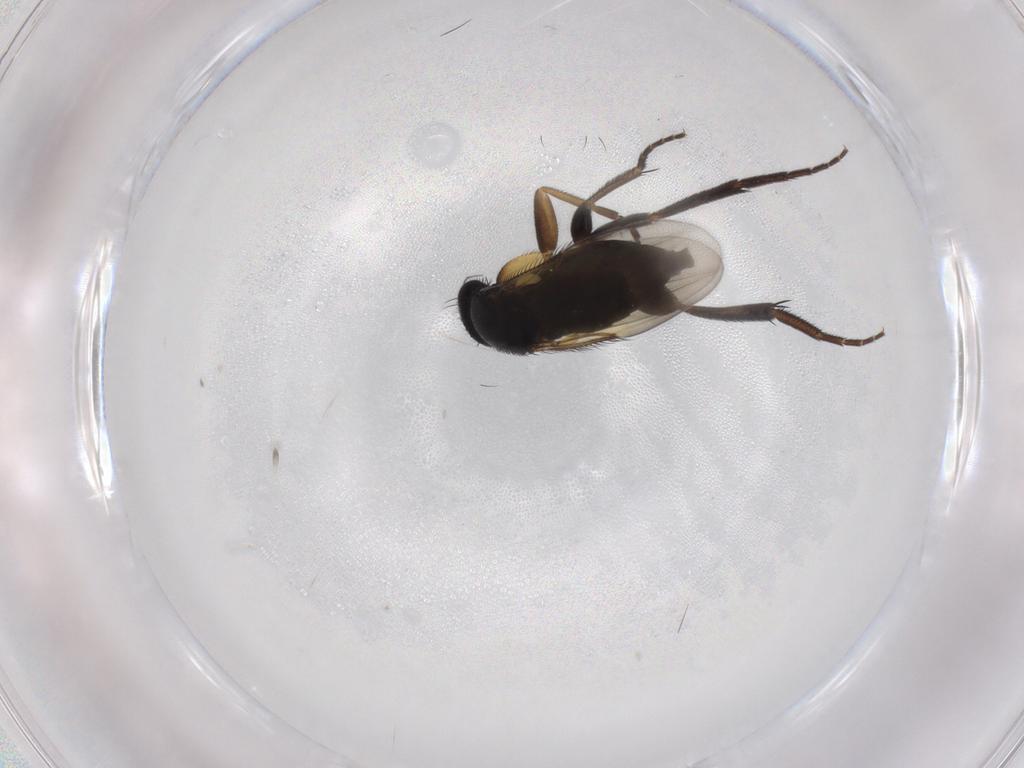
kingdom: Animalia
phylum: Arthropoda
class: Insecta
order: Diptera
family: Phoridae
